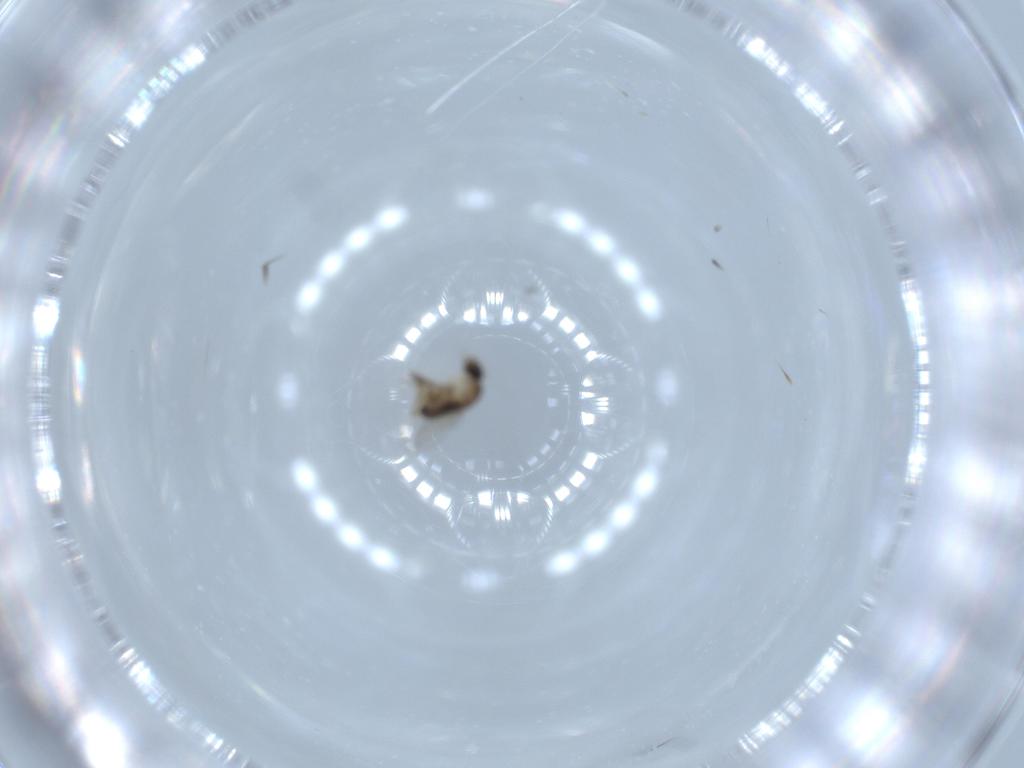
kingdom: Animalia
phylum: Arthropoda
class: Insecta
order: Diptera
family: Phoridae
